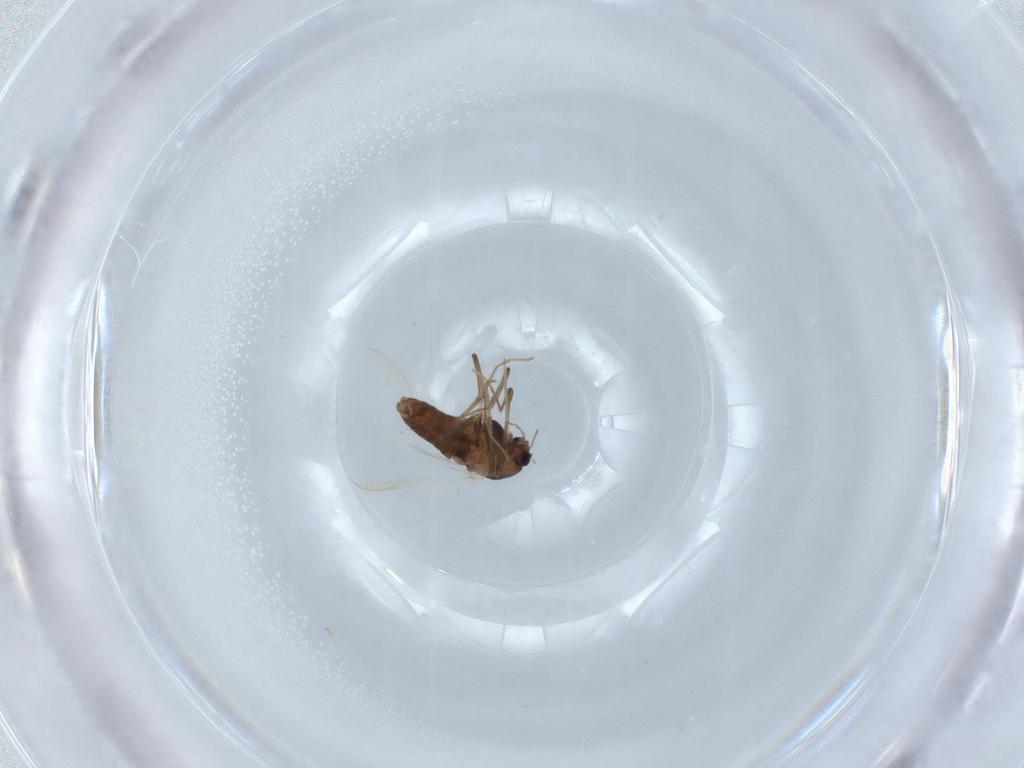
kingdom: Animalia
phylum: Arthropoda
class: Insecta
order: Diptera
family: Chironomidae
